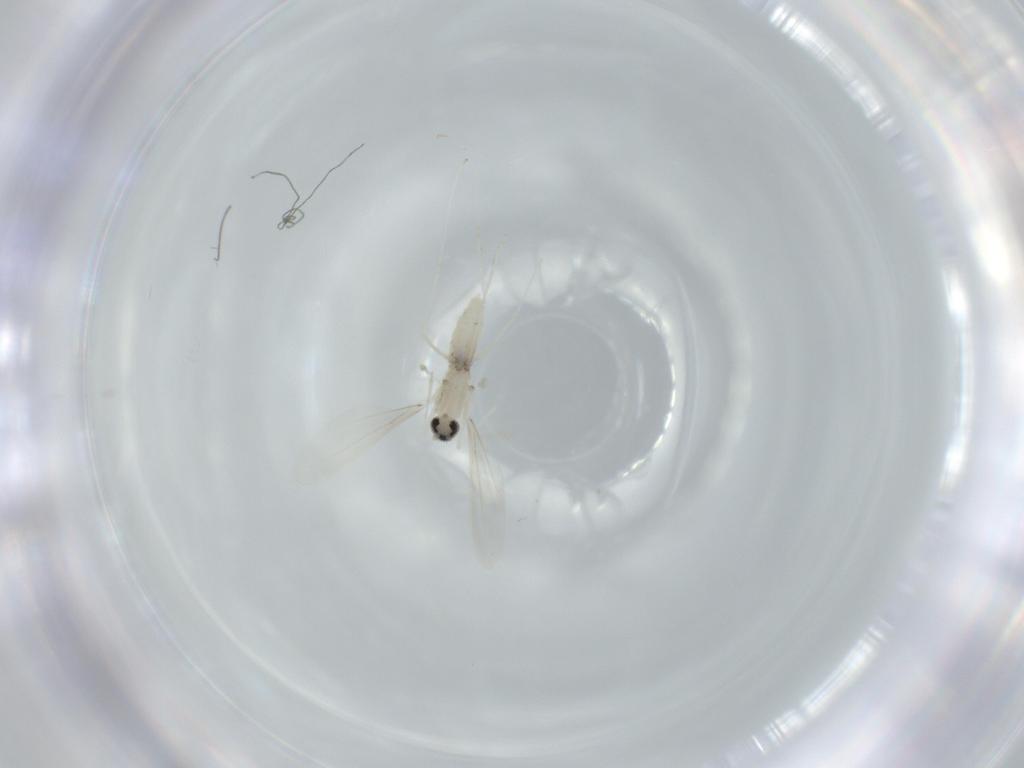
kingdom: Animalia
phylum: Arthropoda
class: Insecta
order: Diptera
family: Cecidomyiidae
